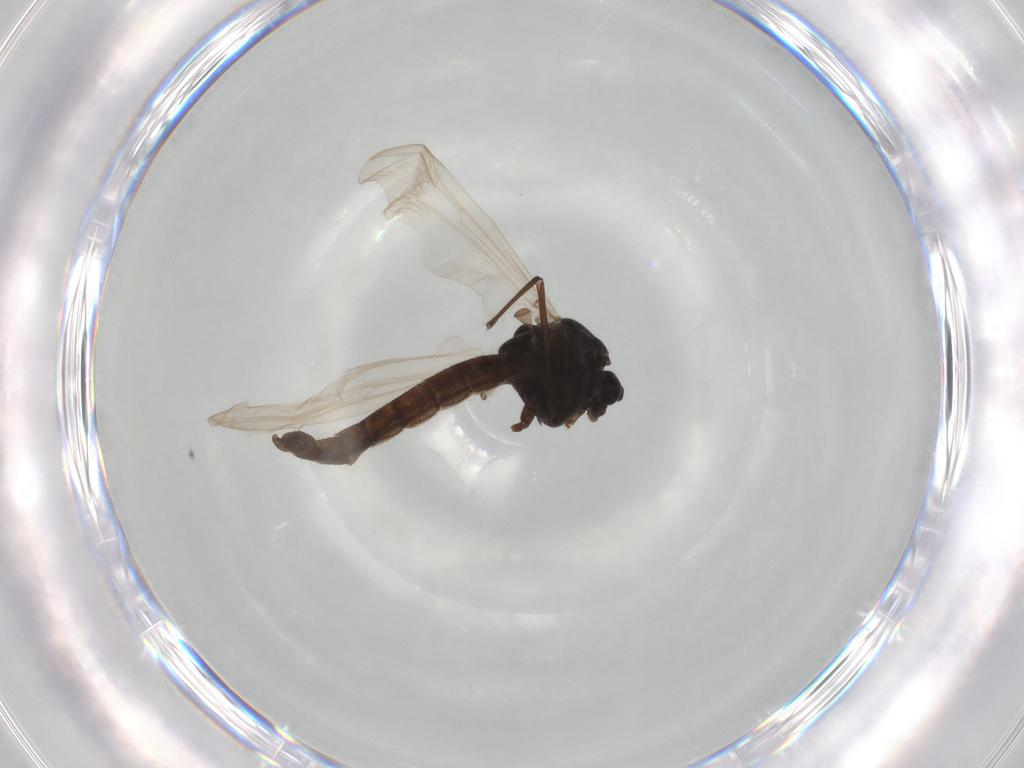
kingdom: Animalia
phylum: Arthropoda
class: Insecta
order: Diptera
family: Chironomidae
